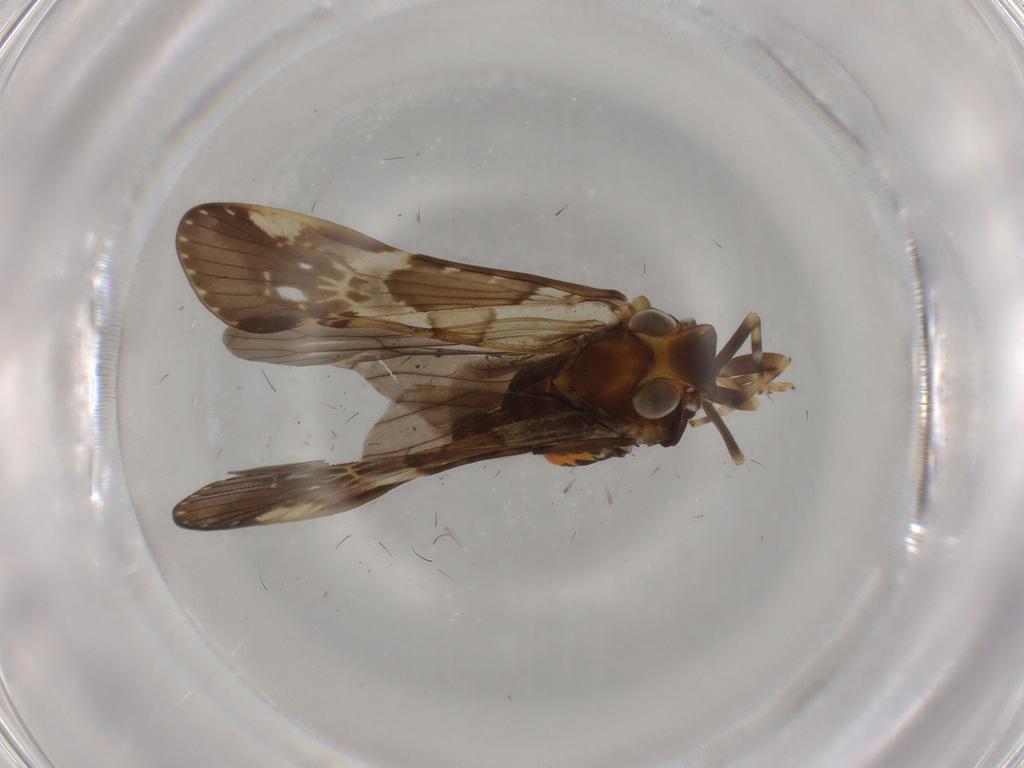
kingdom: Animalia
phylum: Arthropoda
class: Insecta
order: Hemiptera
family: Cixiidae
